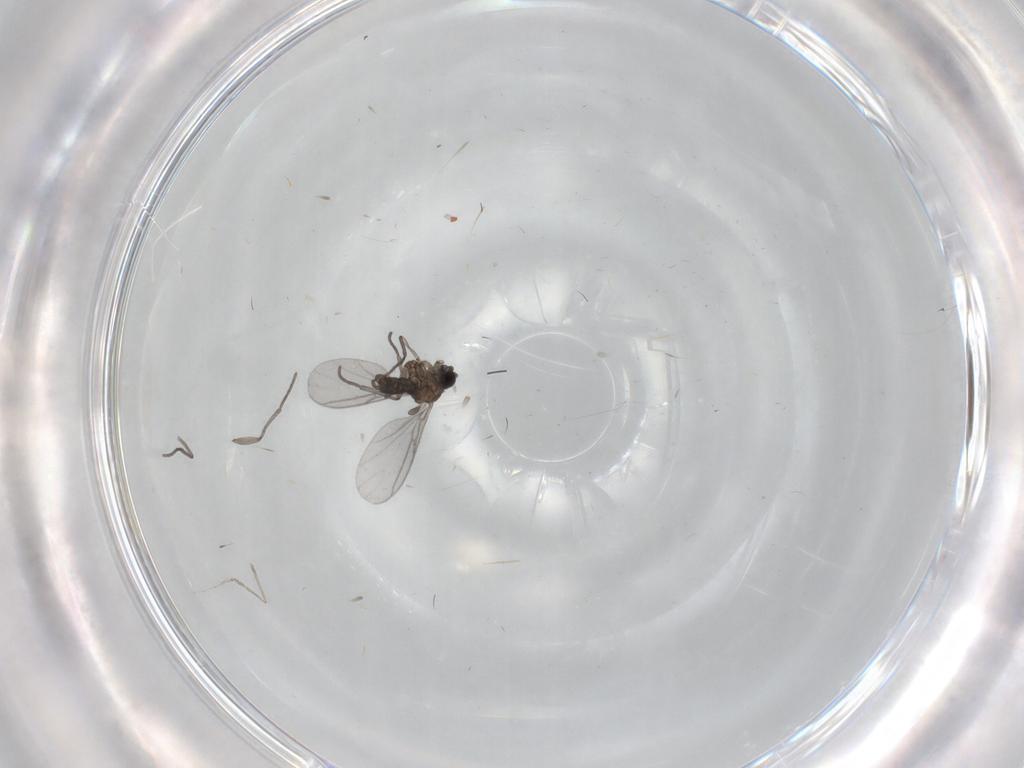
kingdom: Animalia
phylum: Arthropoda
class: Insecta
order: Diptera
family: Sciaridae
